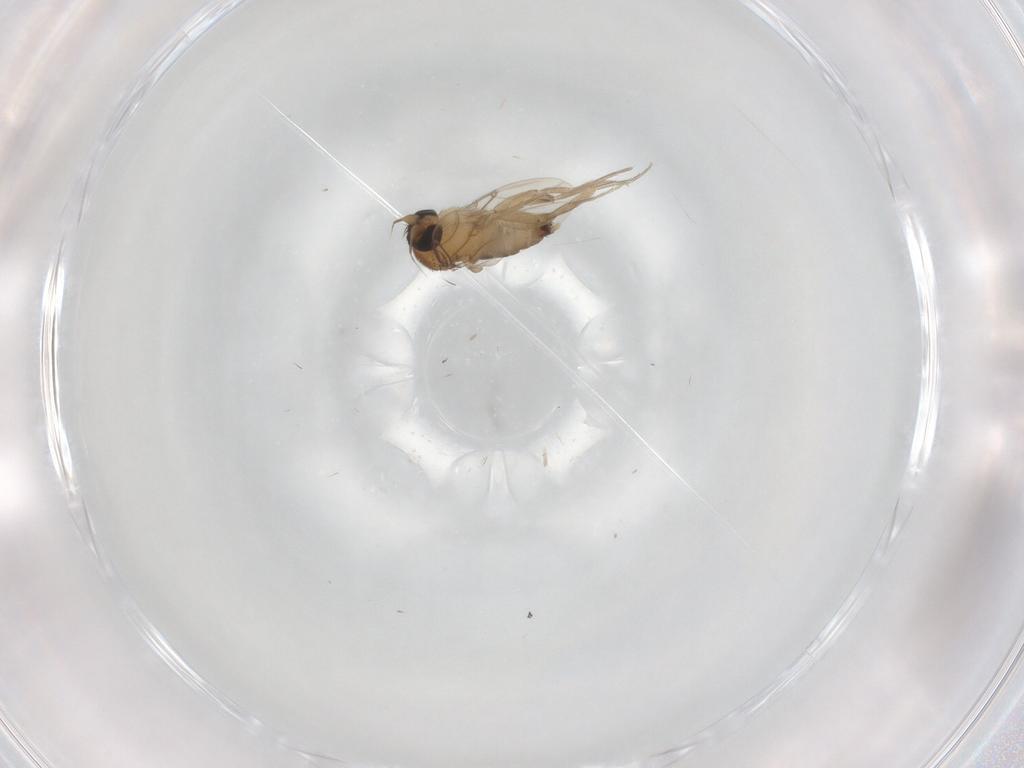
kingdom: Animalia
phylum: Arthropoda
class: Insecta
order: Diptera
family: Phoridae
